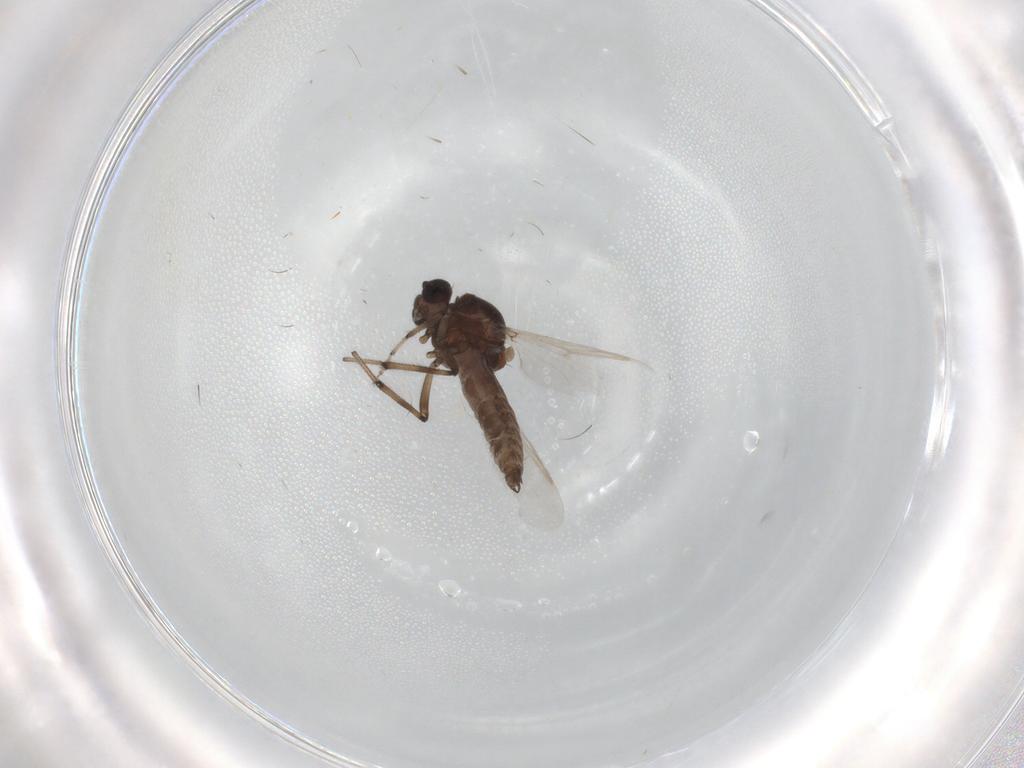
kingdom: Animalia
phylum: Arthropoda
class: Insecta
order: Diptera
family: Ceratopogonidae
